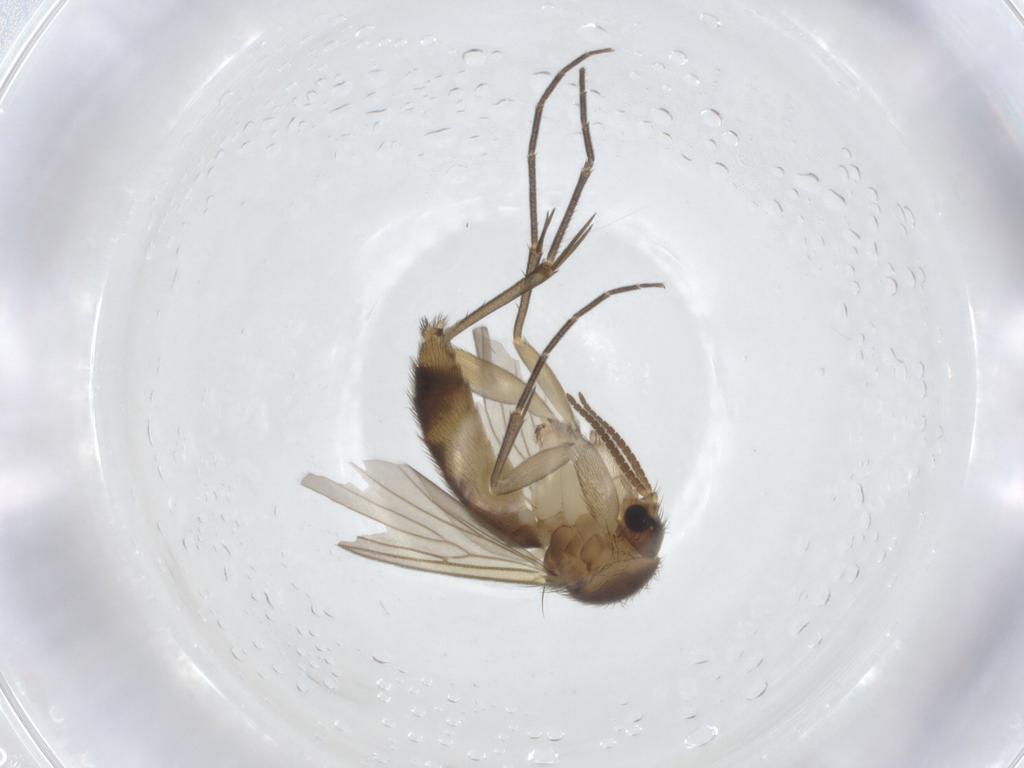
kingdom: Animalia
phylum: Arthropoda
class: Insecta
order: Diptera
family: Mycetophilidae
